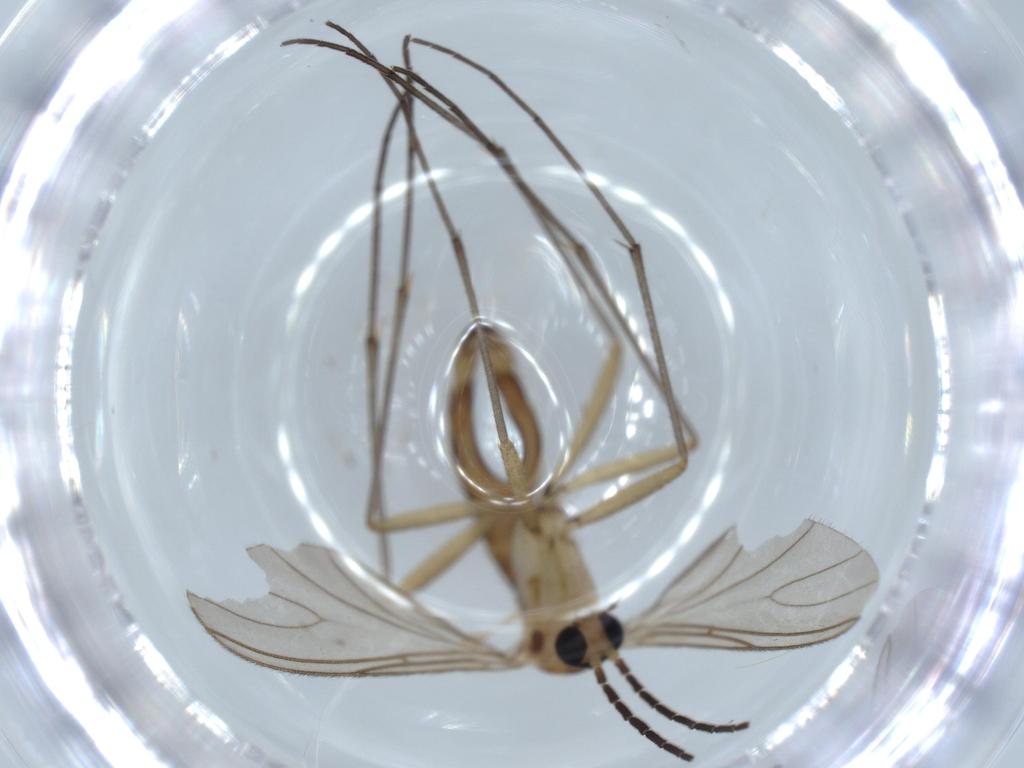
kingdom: Animalia
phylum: Arthropoda
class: Insecta
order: Diptera
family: Sciaridae
